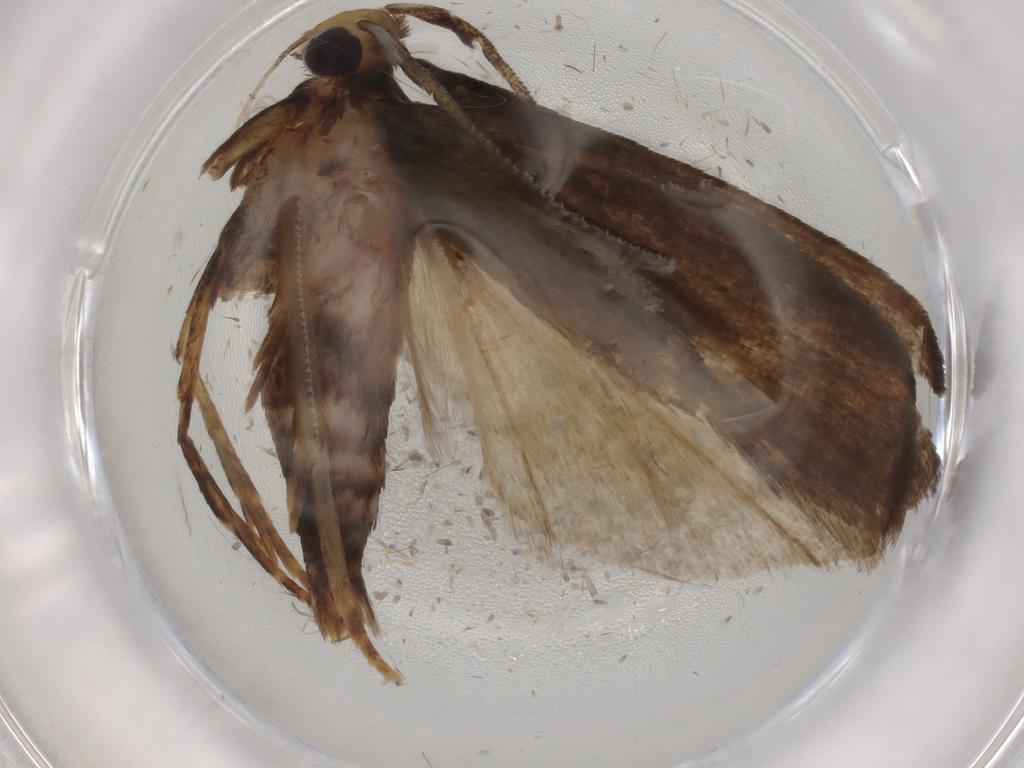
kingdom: Animalia
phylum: Arthropoda
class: Insecta
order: Lepidoptera
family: Autostichidae
